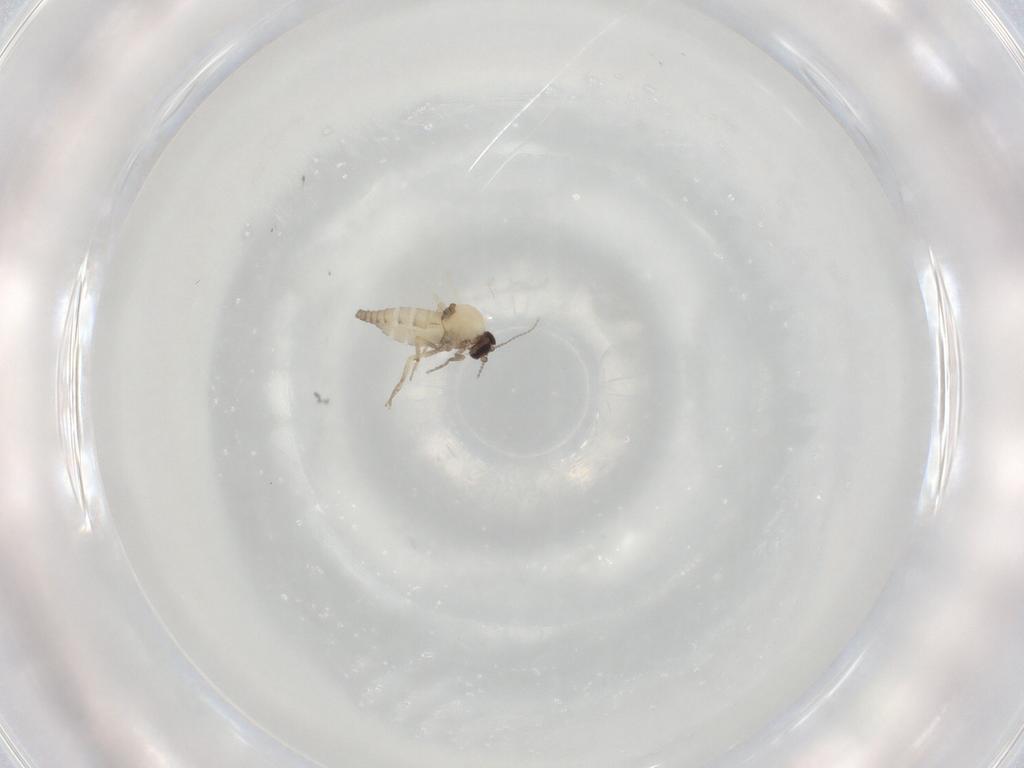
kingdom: Animalia
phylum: Arthropoda
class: Insecta
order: Diptera
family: Ceratopogonidae
